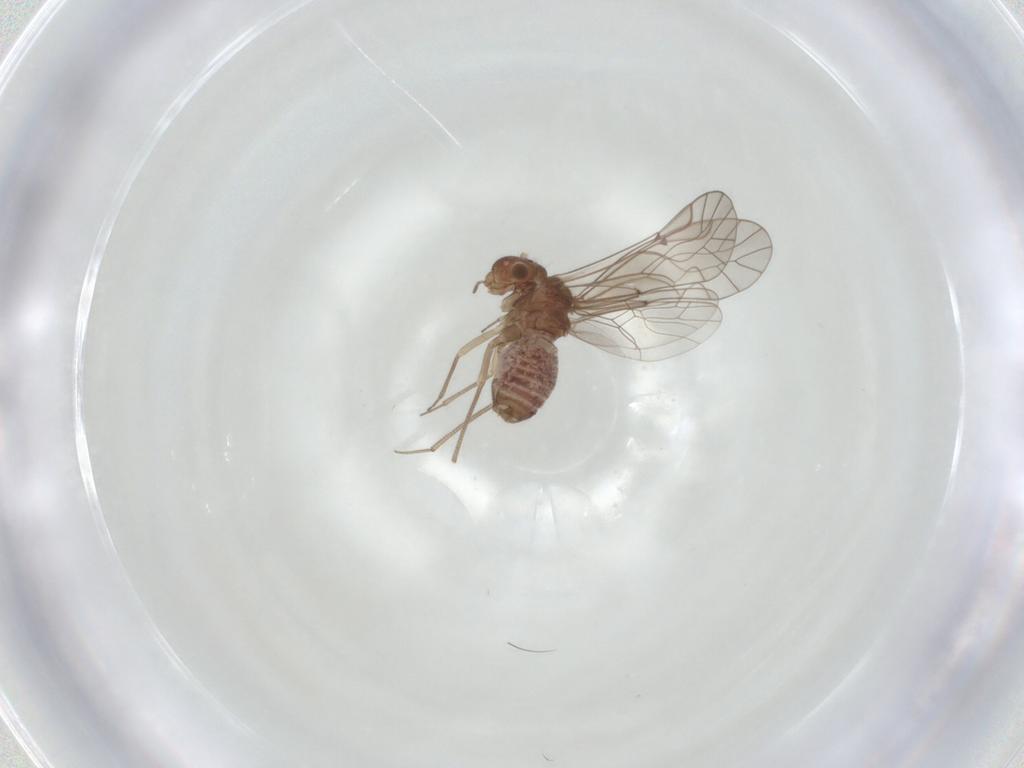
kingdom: Animalia
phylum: Arthropoda
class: Insecta
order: Psocodea
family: Lachesillidae
